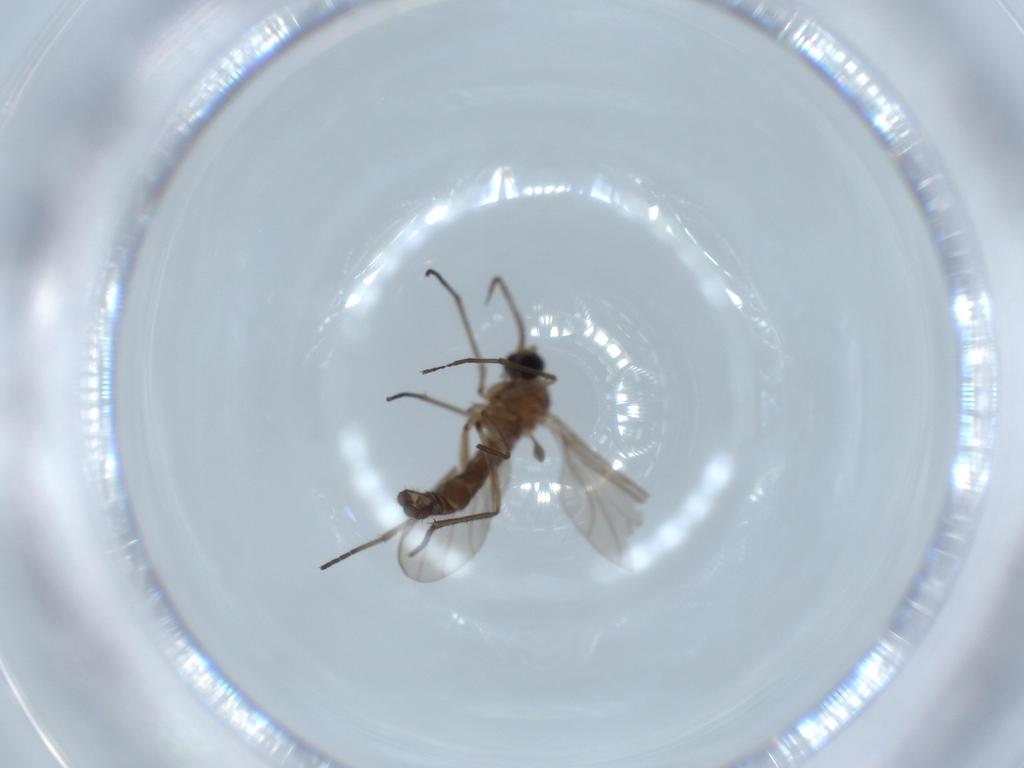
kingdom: Animalia
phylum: Arthropoda
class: Insecta
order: Diptera
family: Sciaridae
